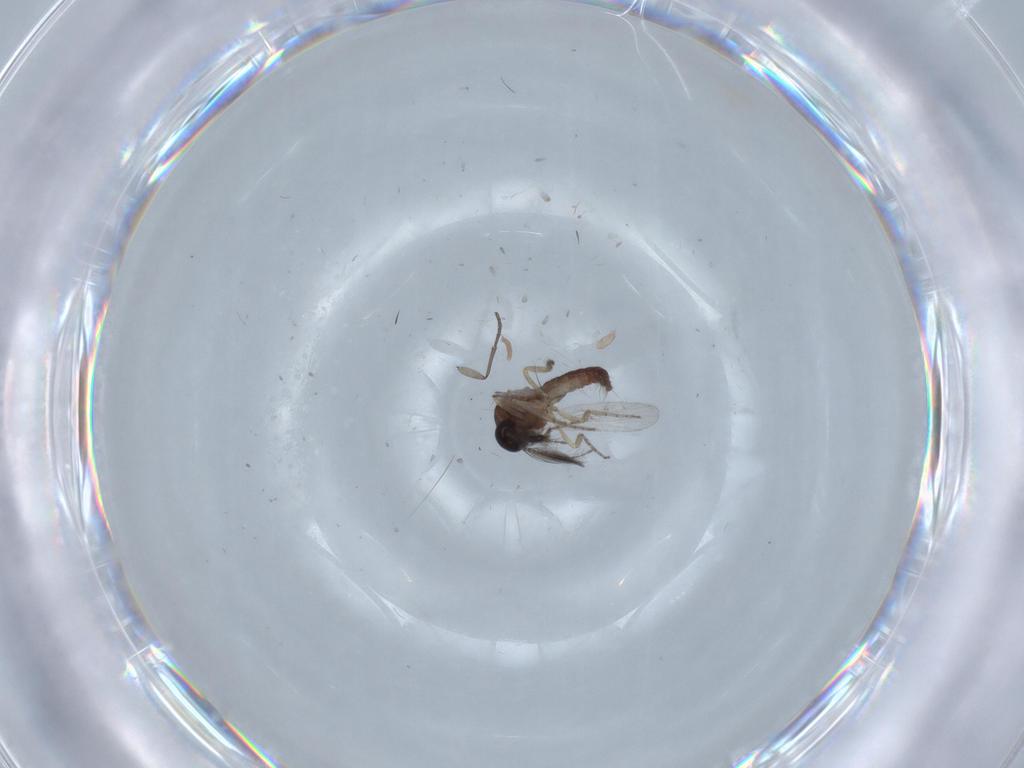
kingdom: Animalia
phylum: Arthropoda
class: Insecta
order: Diptera
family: Ceratopogonidae
